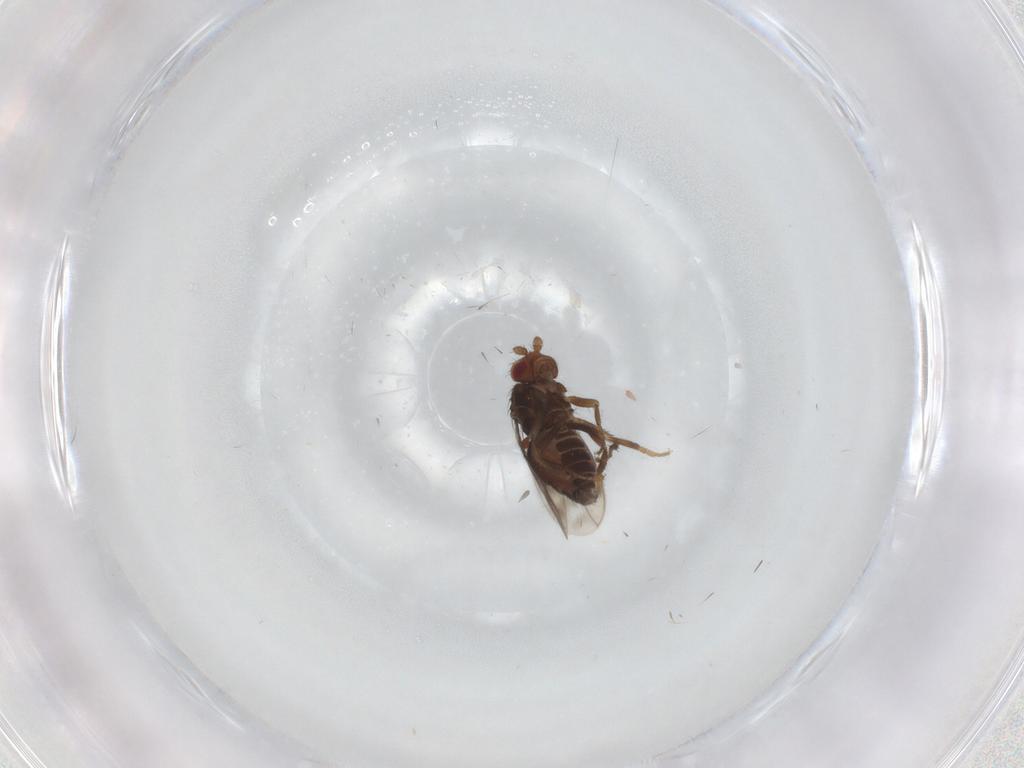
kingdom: Animalia
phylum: Arthropoda
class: Insecta
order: Diptera
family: Sphaeroceridae
